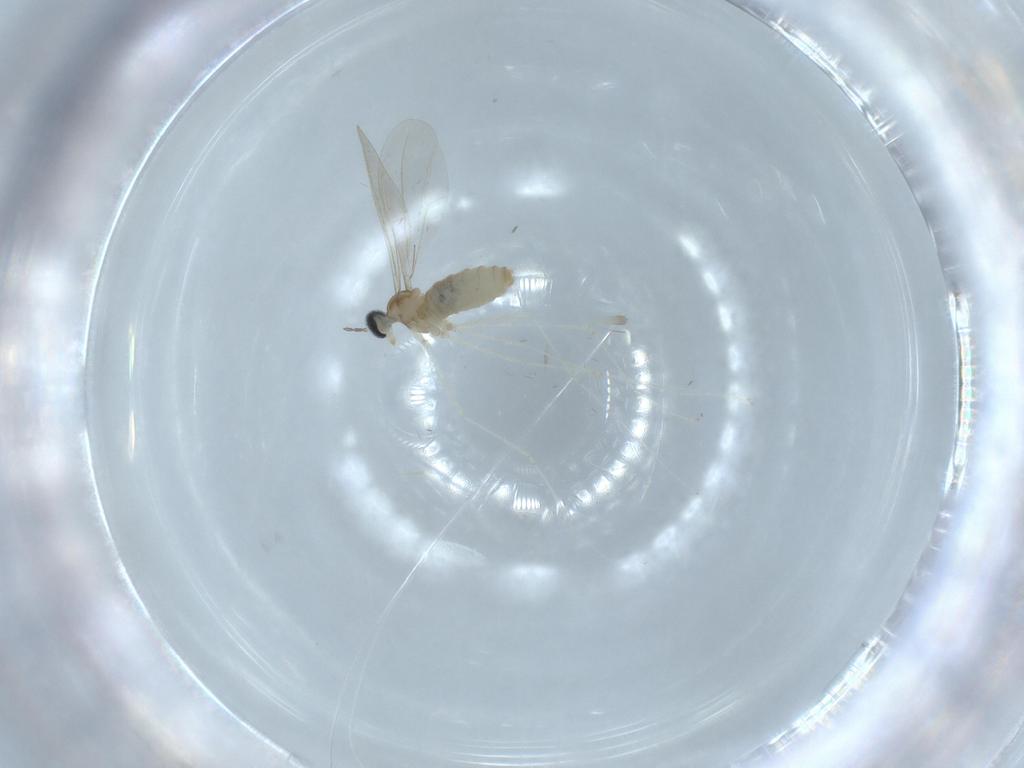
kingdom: Animalia
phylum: Arthropoda
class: Insecta
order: Diptera
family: Cecidomyiidae
